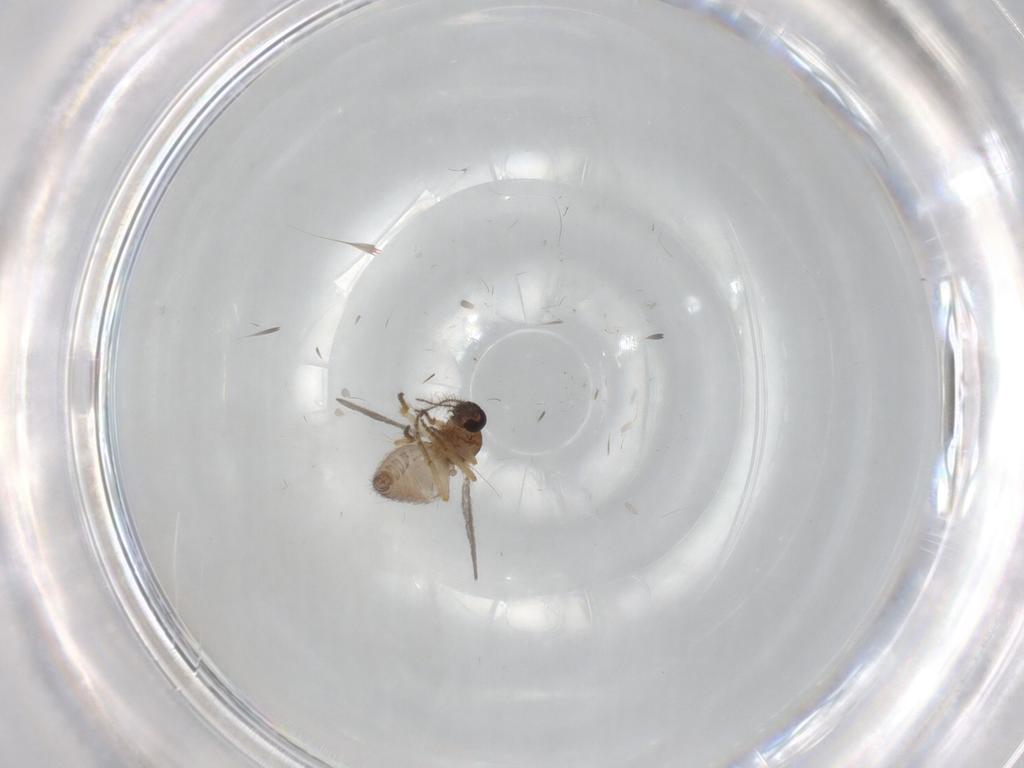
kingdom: Animalia
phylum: Arthropoda
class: Insecta
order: Diptera
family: Ceratopogonidae
